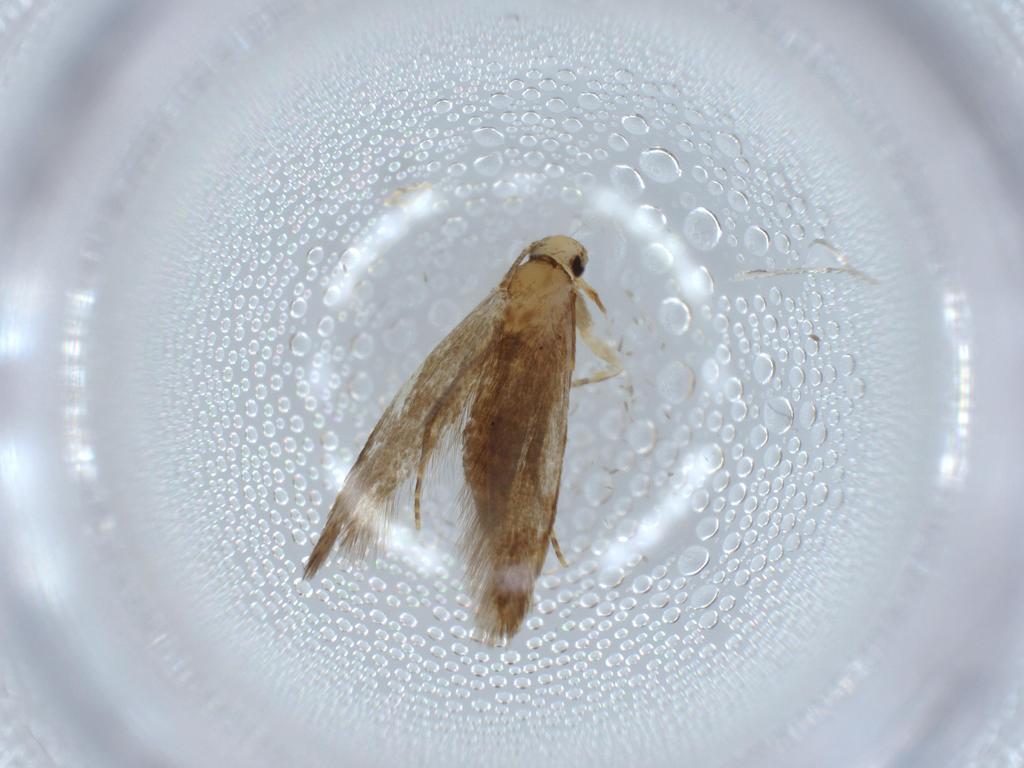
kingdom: Animalia
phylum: Arthropoda
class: Insecta
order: Lepidoptera
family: Tineidae
